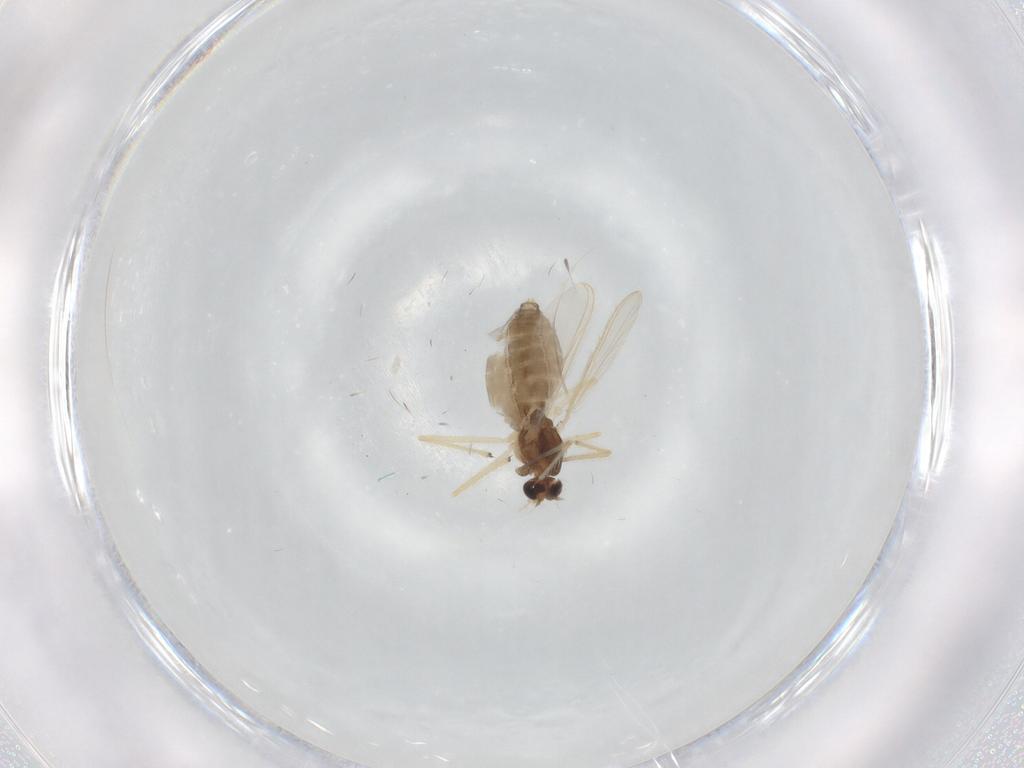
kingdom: Animalia
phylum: Arthropoda
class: Insecta
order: Diptera
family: Chironomidae
